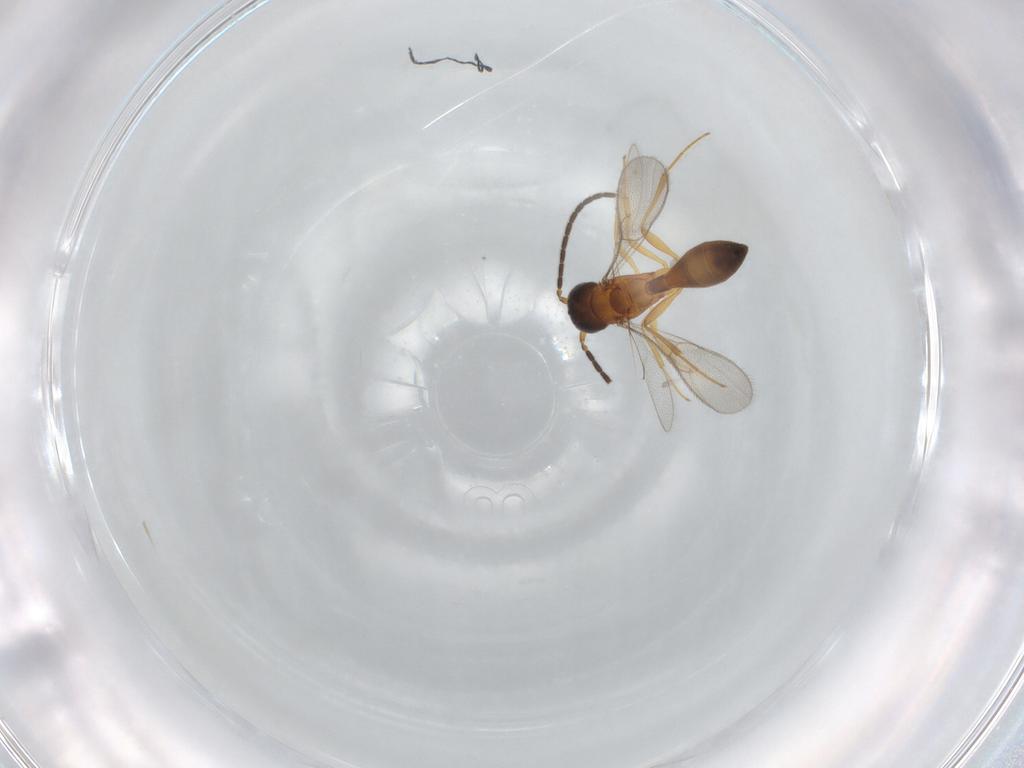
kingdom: Animalia
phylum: Arthropoda
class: Insecta
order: Hymenoptera
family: Scelionidae
